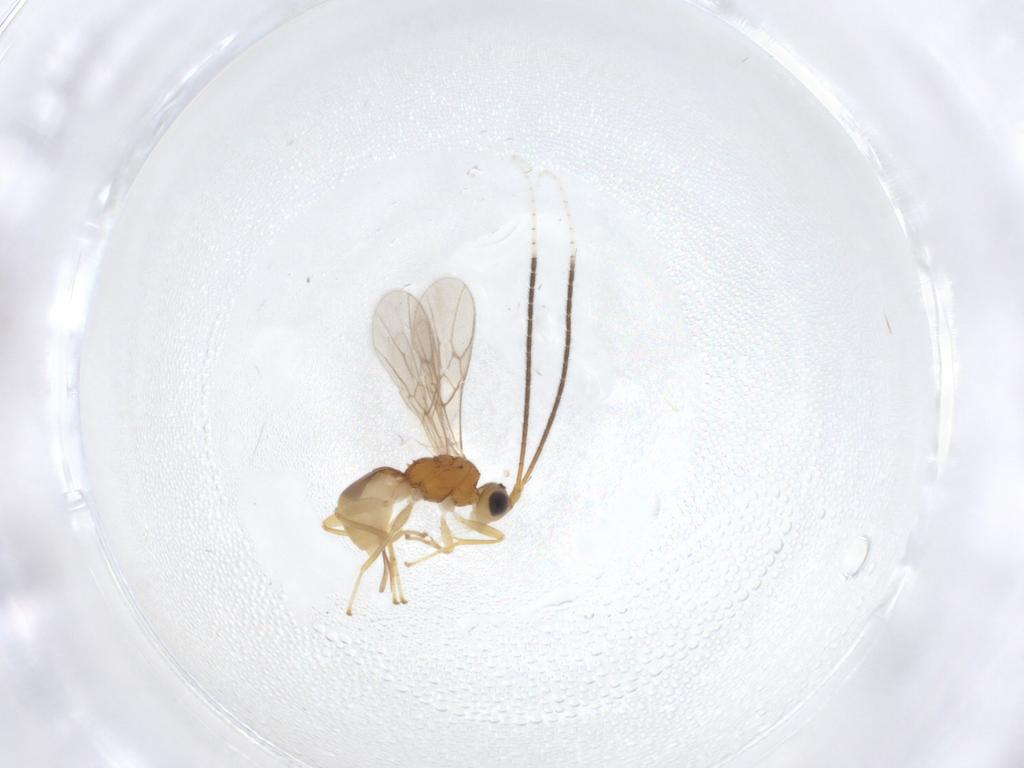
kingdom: Animalia
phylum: Arthropoda
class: Insecta
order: Hymenoptera
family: Braconidae
